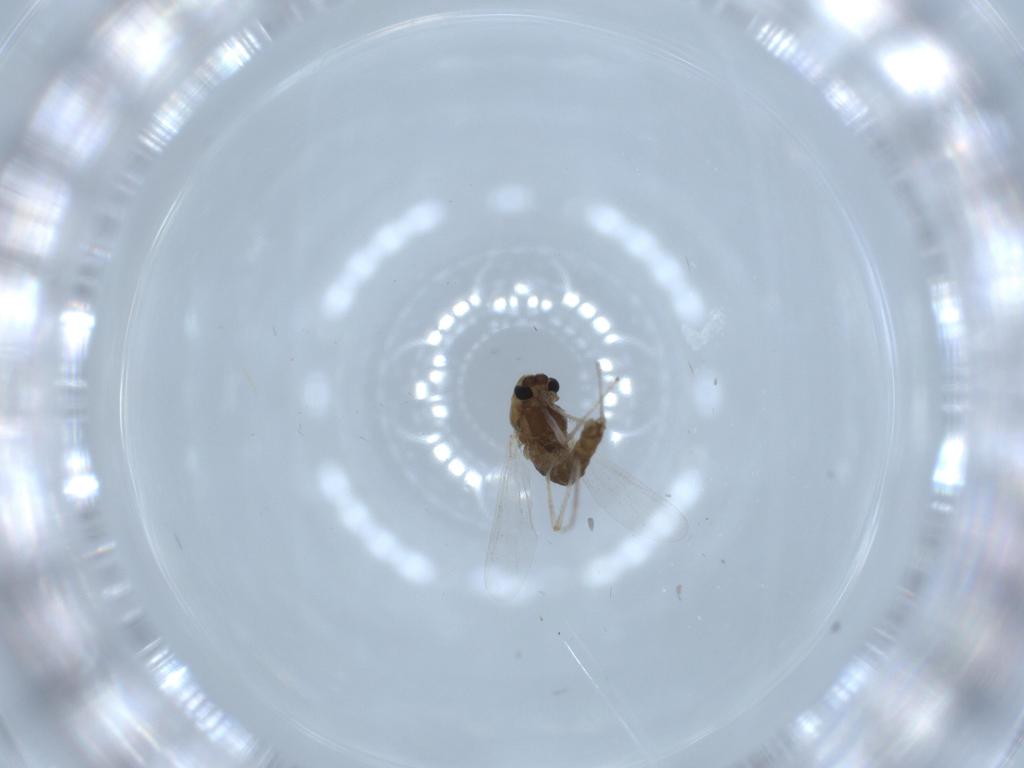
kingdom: Animalia
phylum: Arthropoda
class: Insecta
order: Diptera
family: Chironomidae
